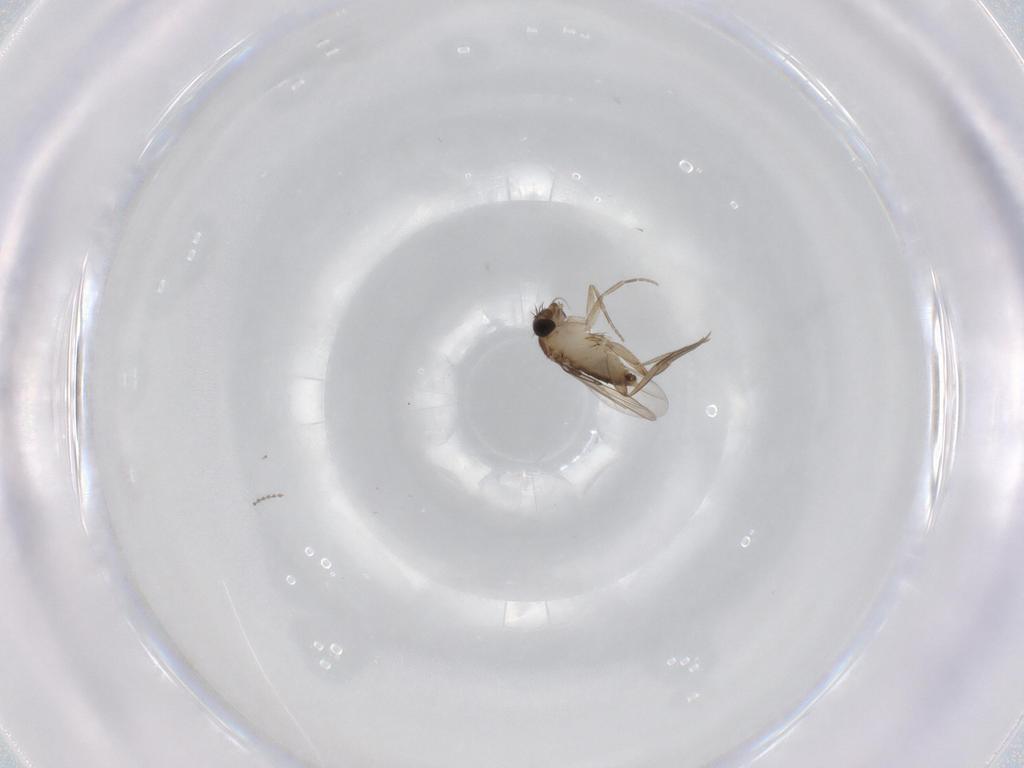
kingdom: Animalia
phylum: Arthropoda
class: Insecta
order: Diptera
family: Phoridae
